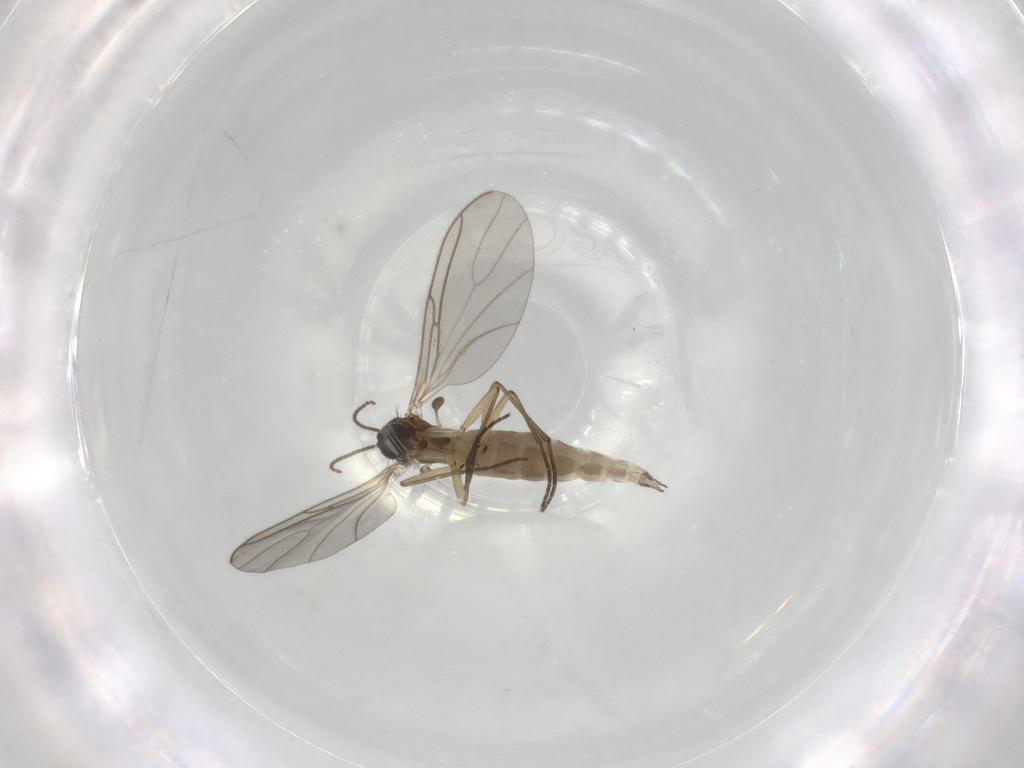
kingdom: Animalia
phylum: Arthropoda
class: Insecta
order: Diptera
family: Sciaridae
